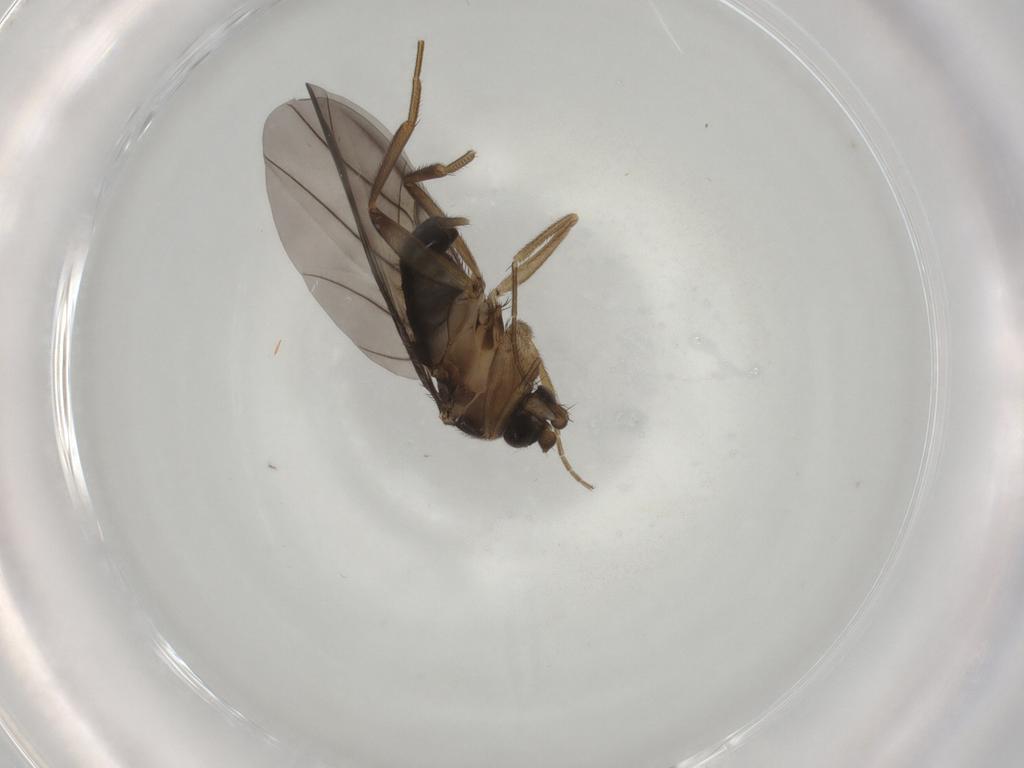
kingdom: Animalia
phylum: Arthropoda
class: Insecta
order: Diptera
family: Phoridae
